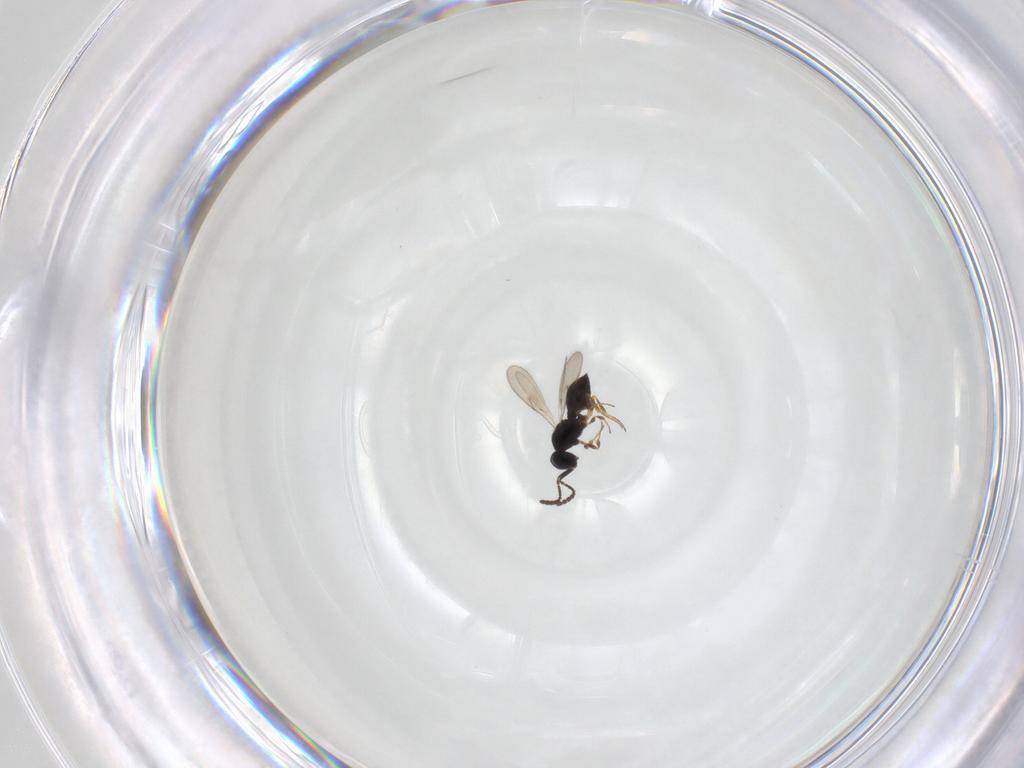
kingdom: Animalia
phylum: Arthropoda
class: Insecta
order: Hymenoptera
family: Scelionidae
